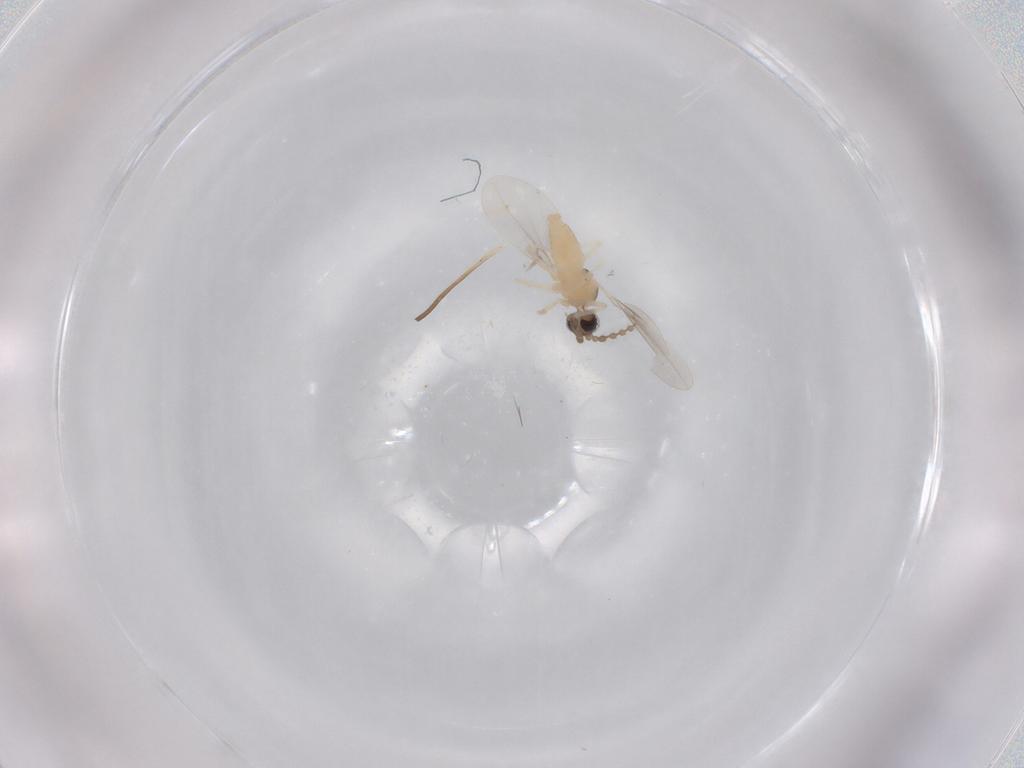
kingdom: Animalia
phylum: Arthropoda
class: Insecta
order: Diptera
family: Cecidomyiidae
